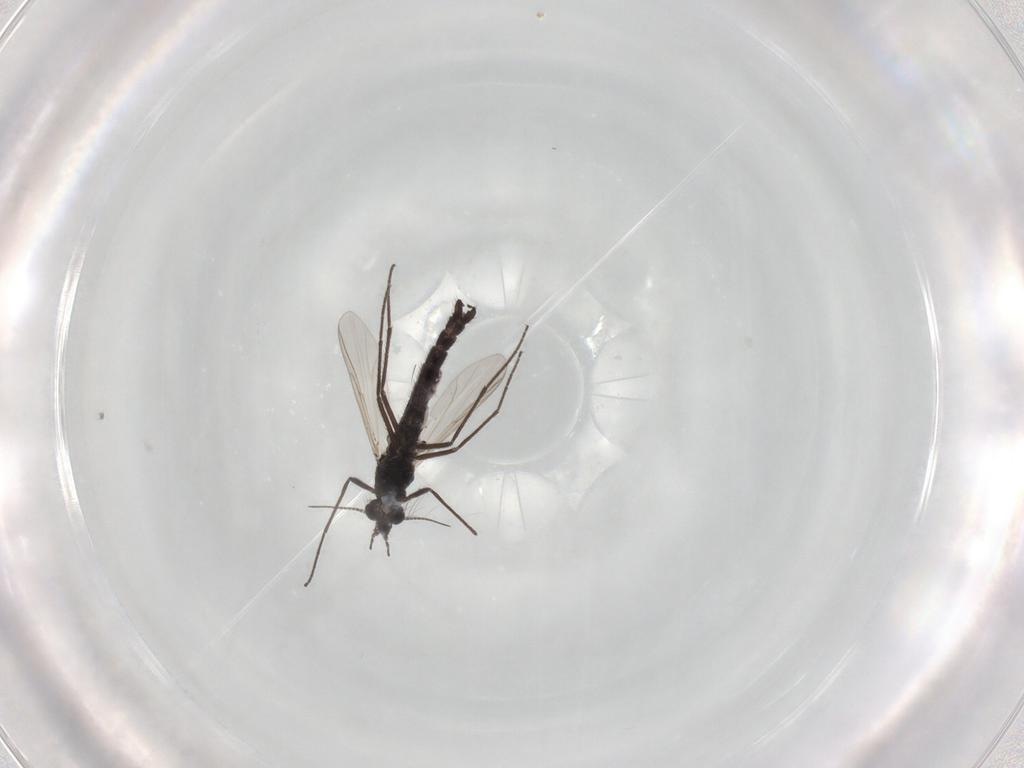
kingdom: Animalia
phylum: Arthropoda
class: Insecta
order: Diptera
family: Chironomidae
